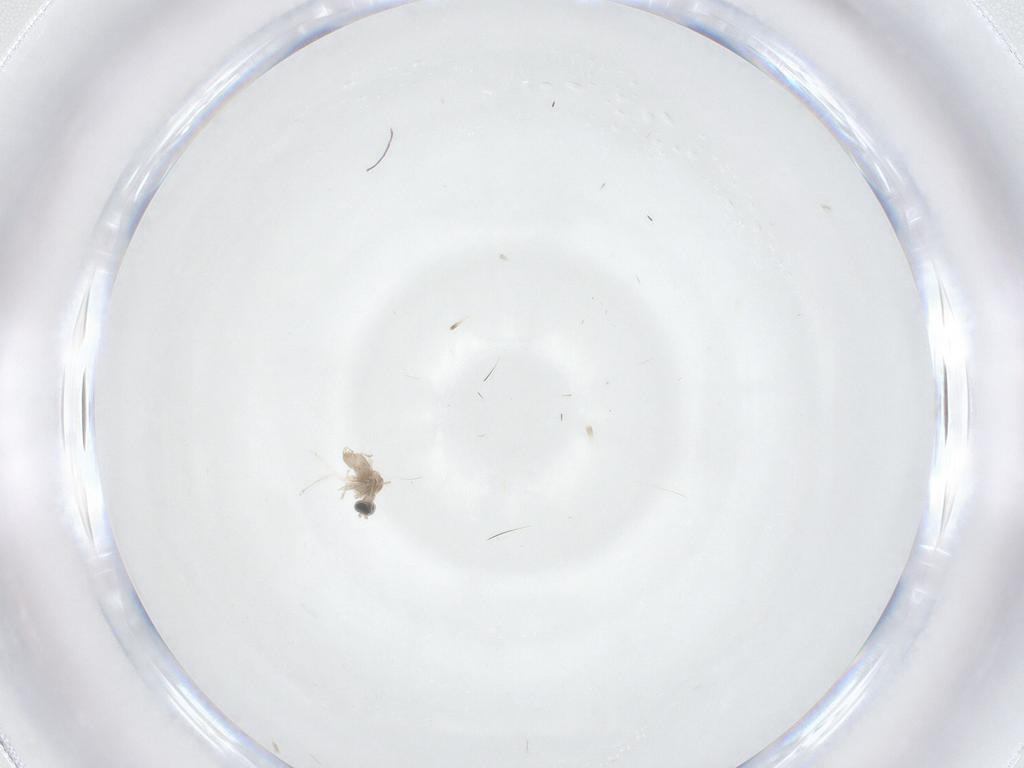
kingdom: Animalia
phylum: Arthropoda
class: Insecta
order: Diptera
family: Cecidomyiidae
